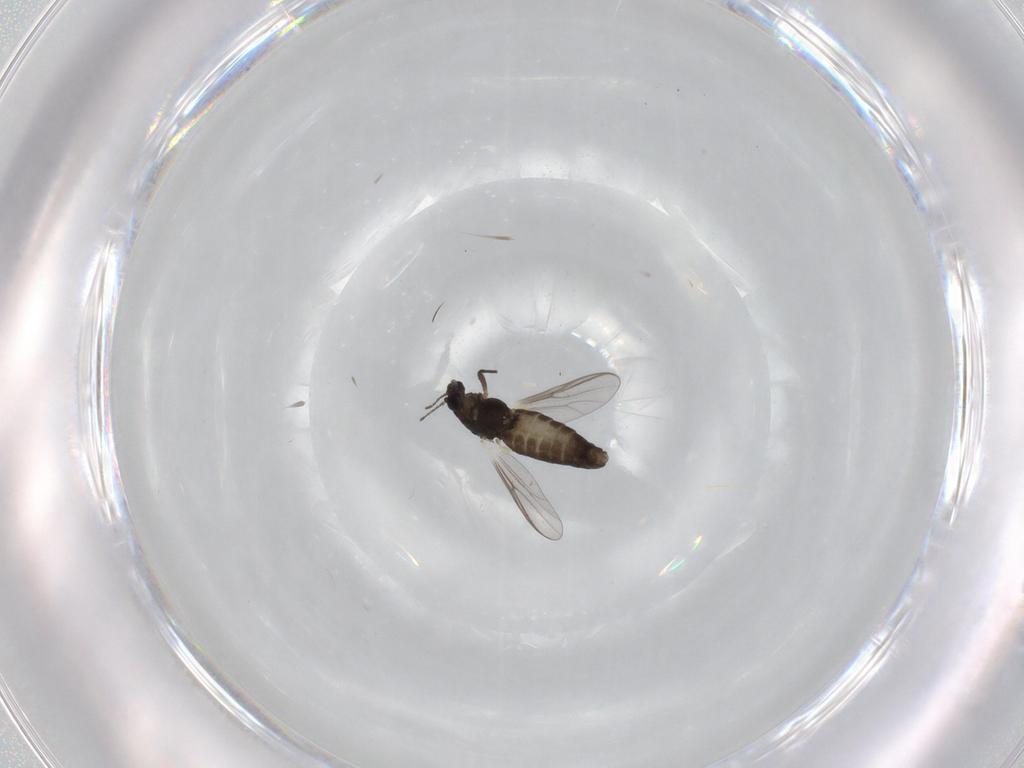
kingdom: Animalia
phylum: Arthropoda
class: Insecta
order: Diptera
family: Chironomidae
